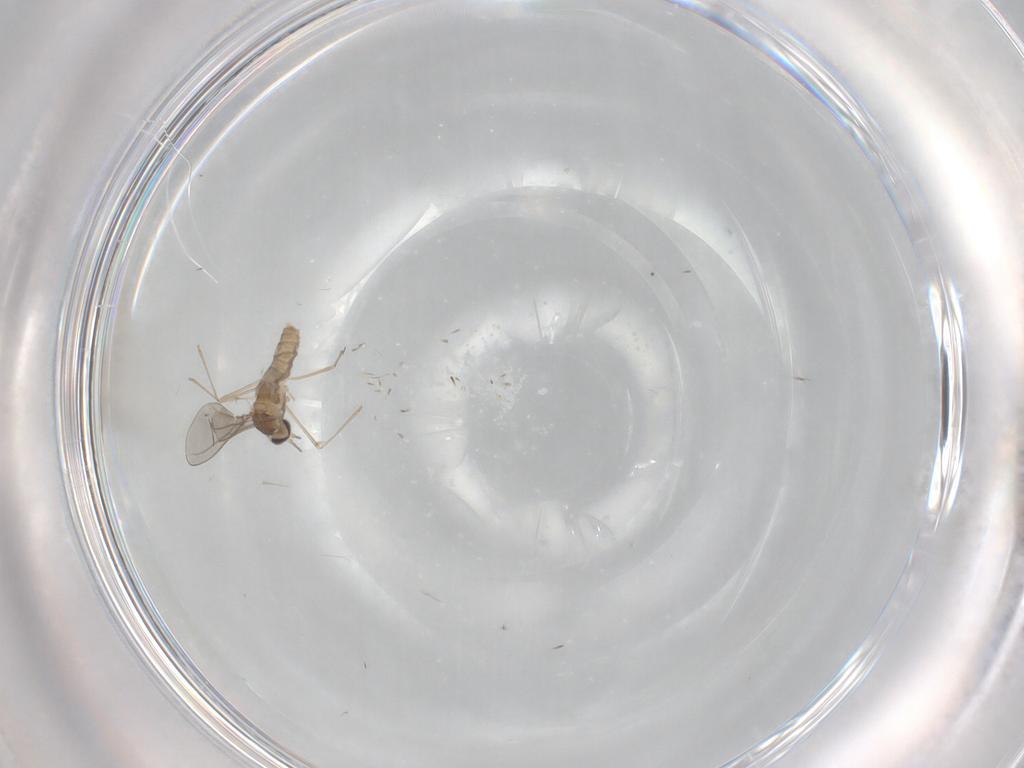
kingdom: Animalia
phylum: Arthropoda
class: Insecta
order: Diptera
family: Cecidomyiidae
